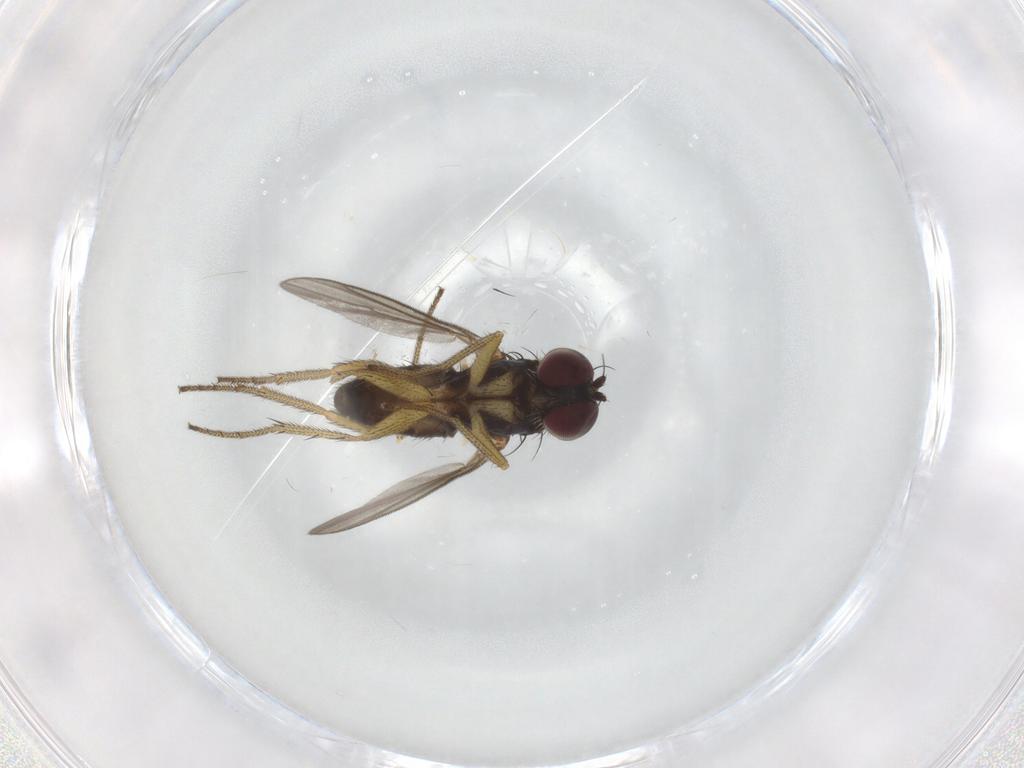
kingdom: Animalia
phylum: Arthropoda
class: Insecta
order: Diptera
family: Dolichopodidae
